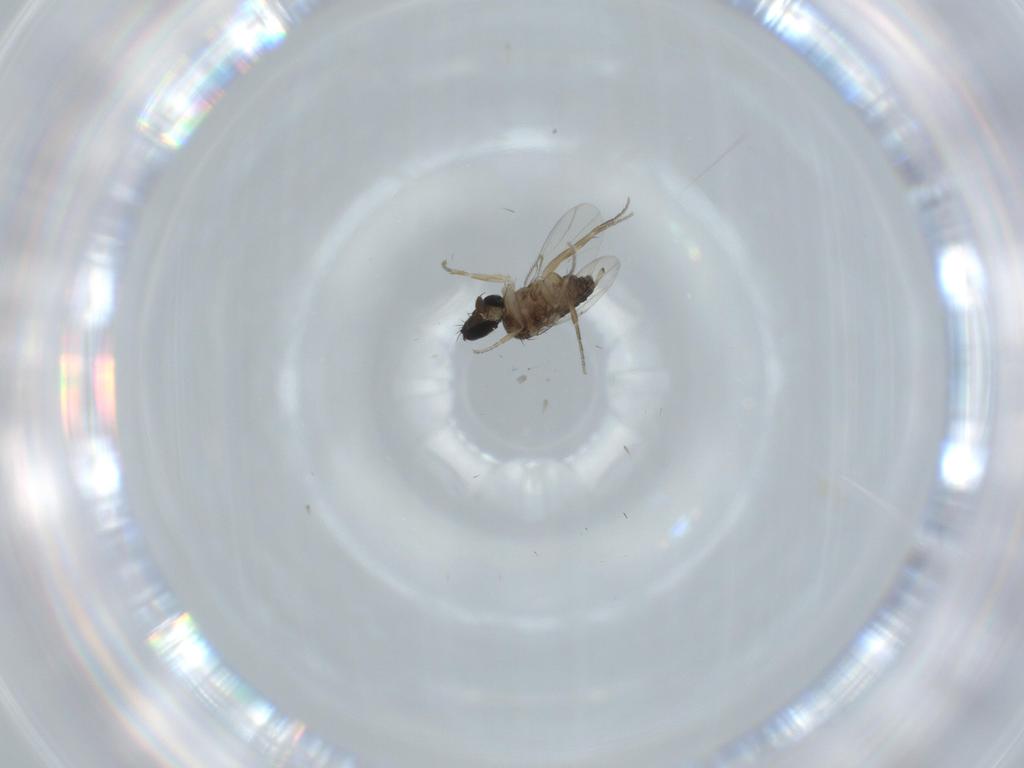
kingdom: Animalia
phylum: Arthropoda
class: Insecta
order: Diptera
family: Phoridae
